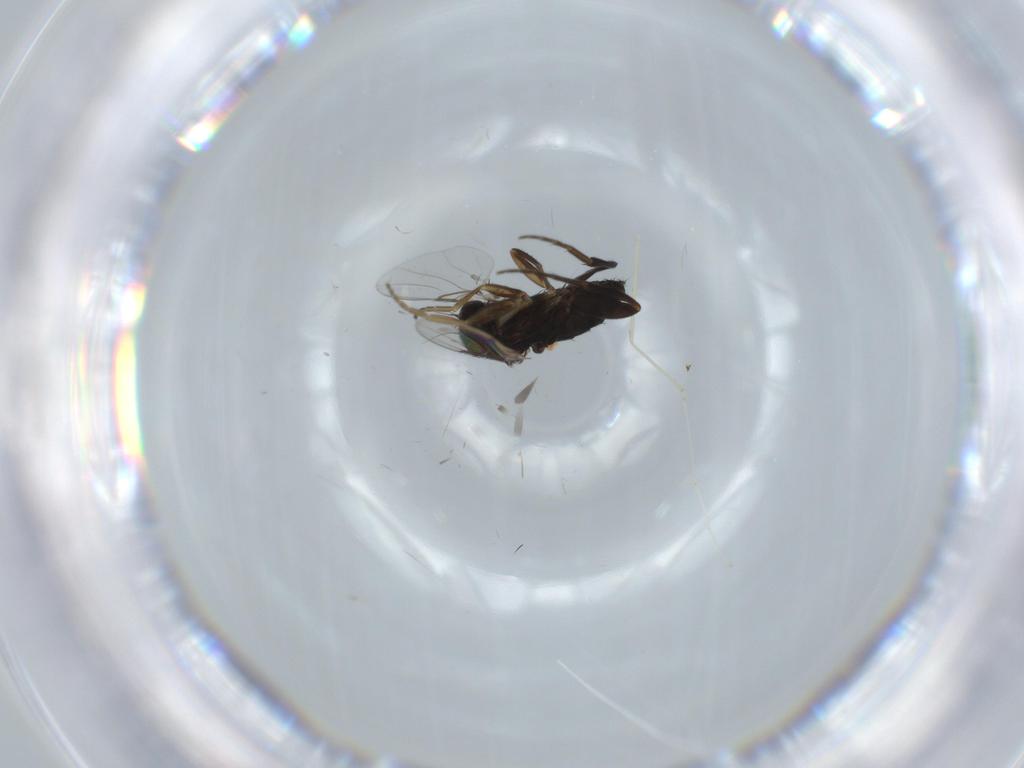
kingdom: Animalia
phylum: Arthropoda
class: Insecta
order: Diptera
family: Phoridae
